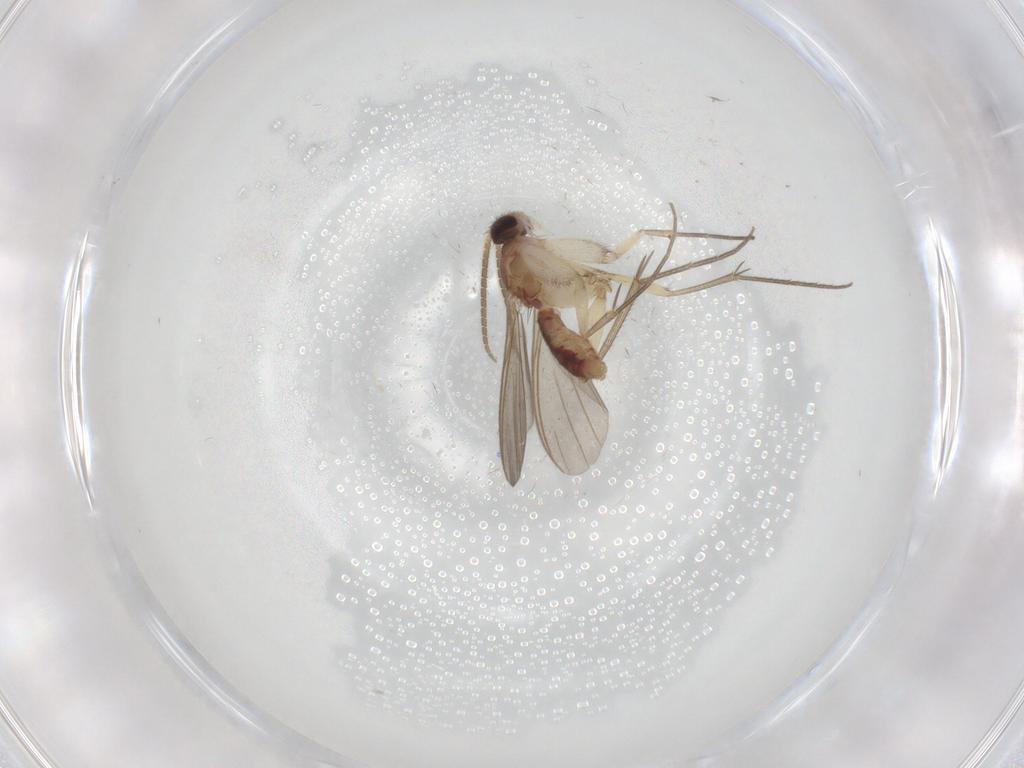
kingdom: Animalia
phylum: Arthropoda
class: Insecta
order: Diptera
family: Mycetophilidae
